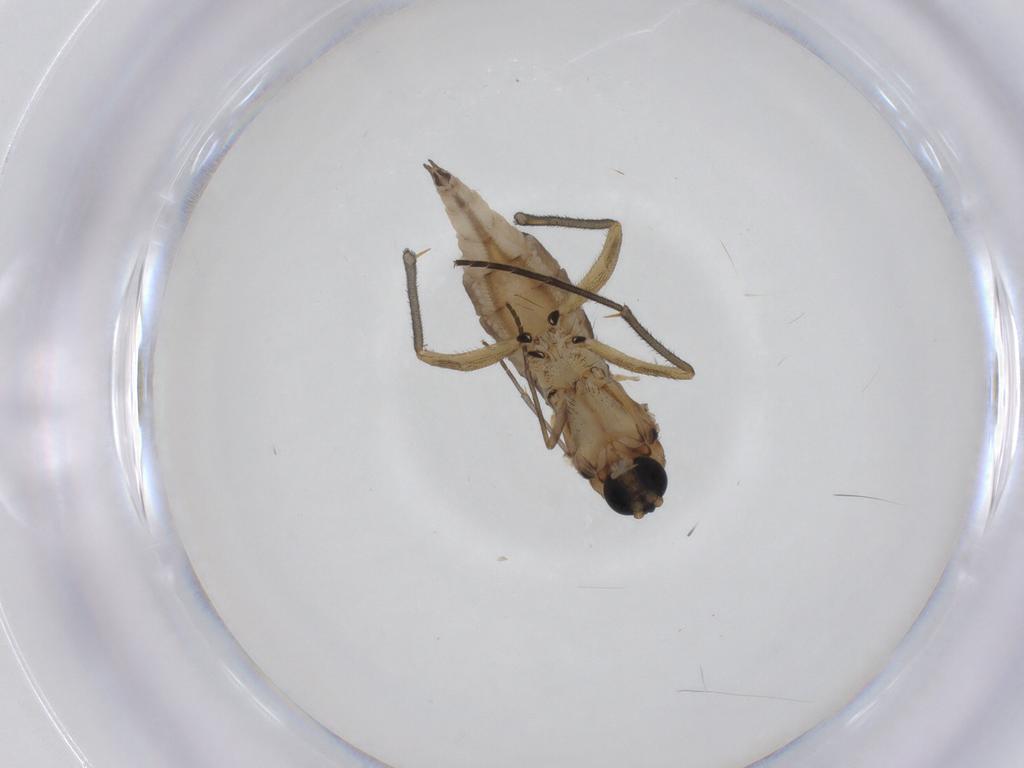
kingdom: Animalia
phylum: Arthropoda
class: Insecta
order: Diptera
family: Sciaridae
